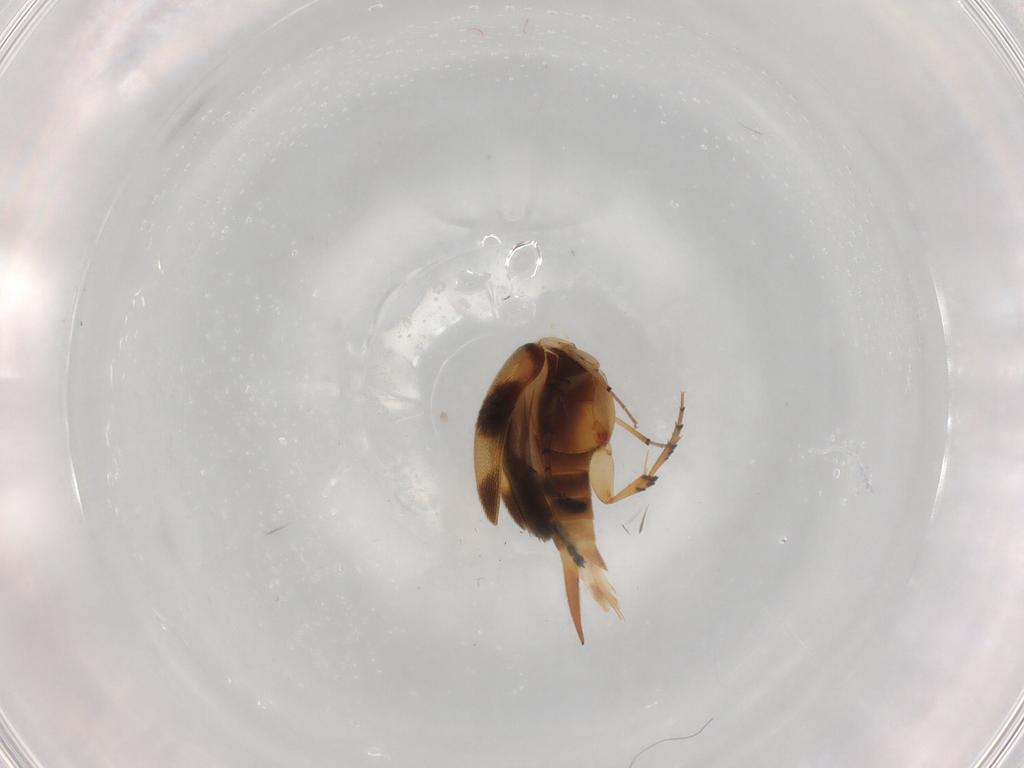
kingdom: Animalia
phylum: Arthropoda
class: Insecta
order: Coleoptera
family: Mordellidae
